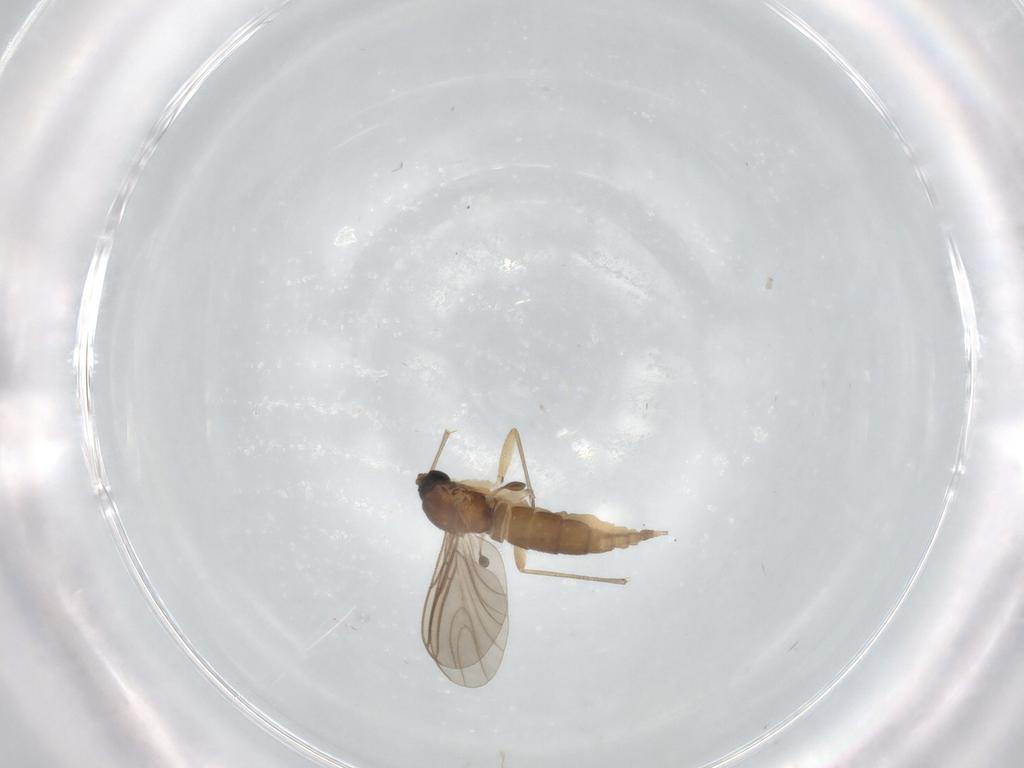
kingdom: Animalia
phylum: Arthropoda
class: Insecta
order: Diptera
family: Sciaridae
